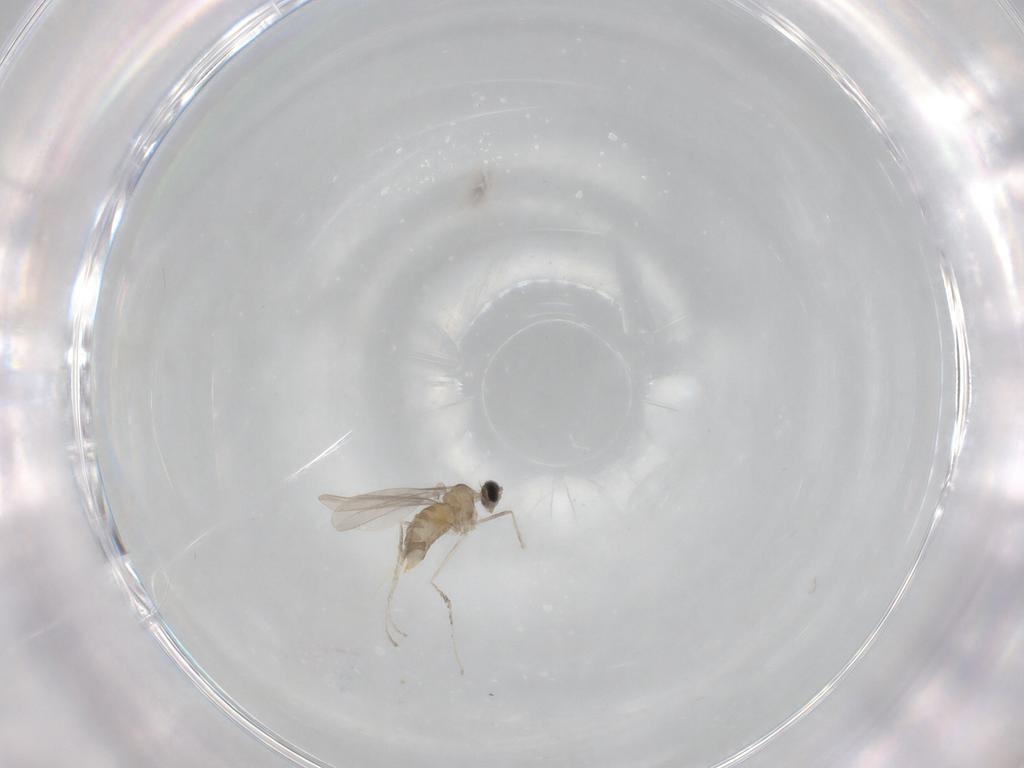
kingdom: Animalia
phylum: Arthropoda
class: Insecta
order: Diptera
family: Cecidomyiidae
